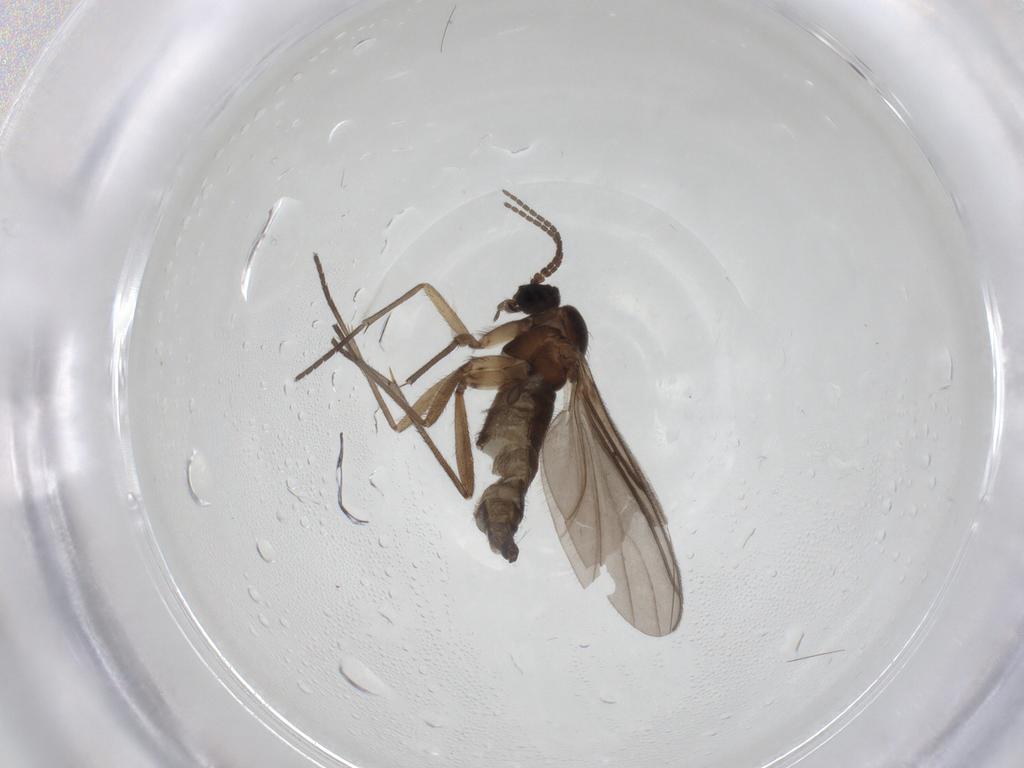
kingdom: Animalia
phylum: Arthropoda
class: Insecta
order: Diptera
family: Sciaridae
